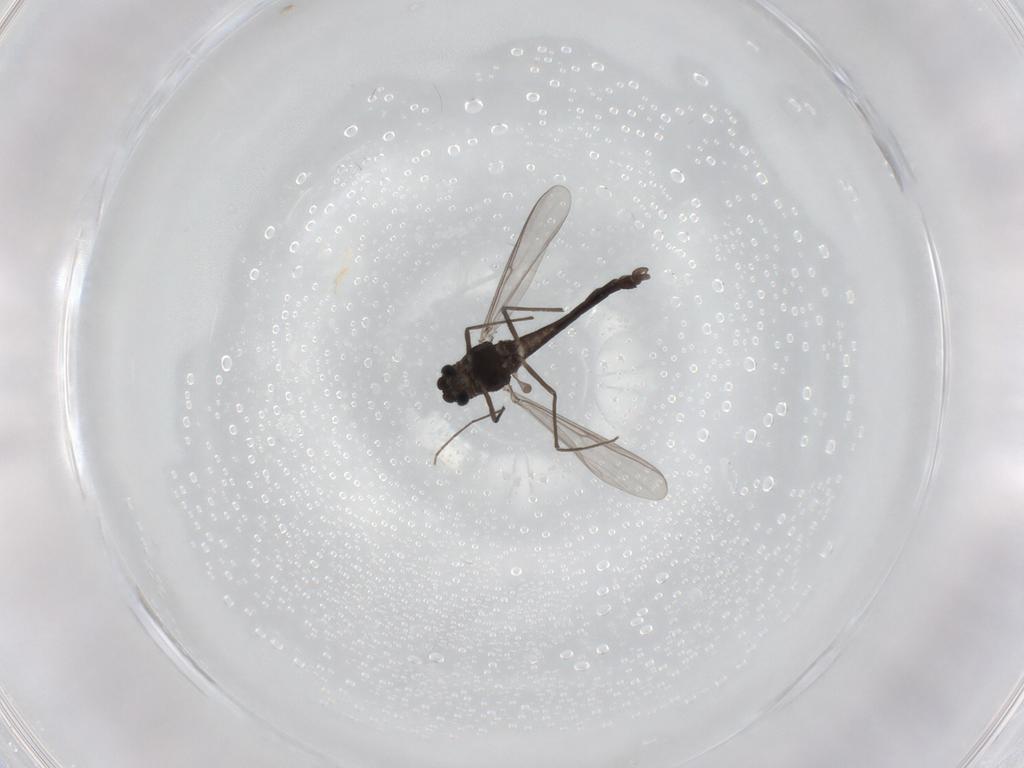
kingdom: Animalia
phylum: Arthropoda
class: Insecta
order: Diptera
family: Chironomidae
